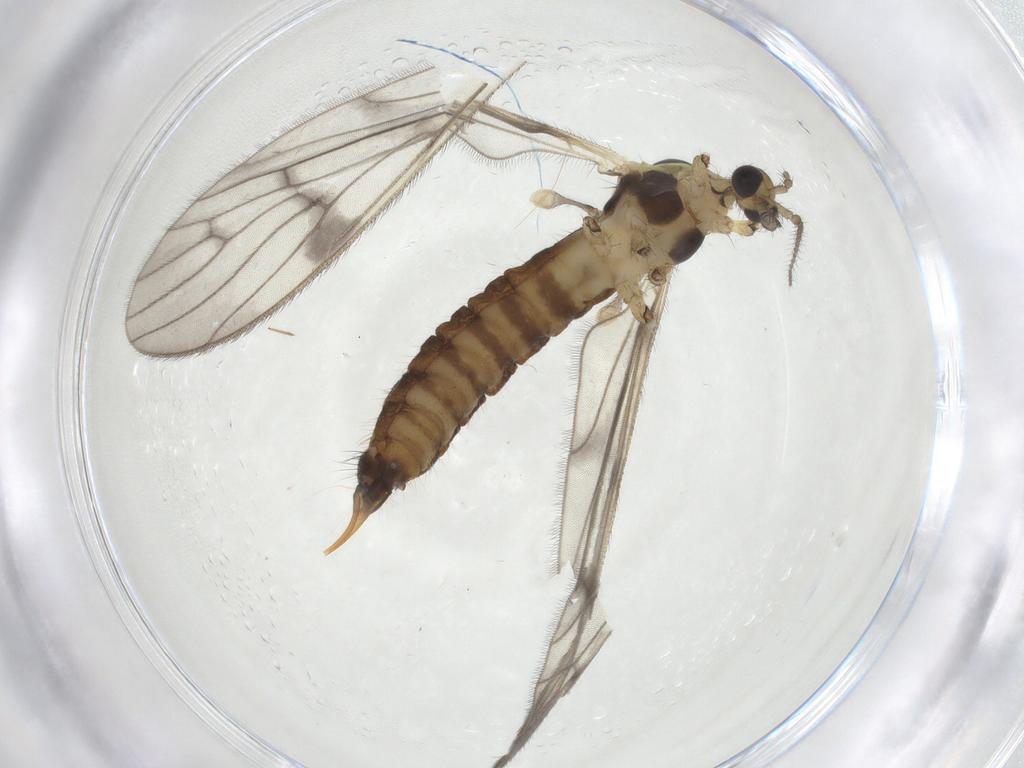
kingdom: Animalia
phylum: Arthropoda
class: Insecta
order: Diptera
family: Limoniidae
